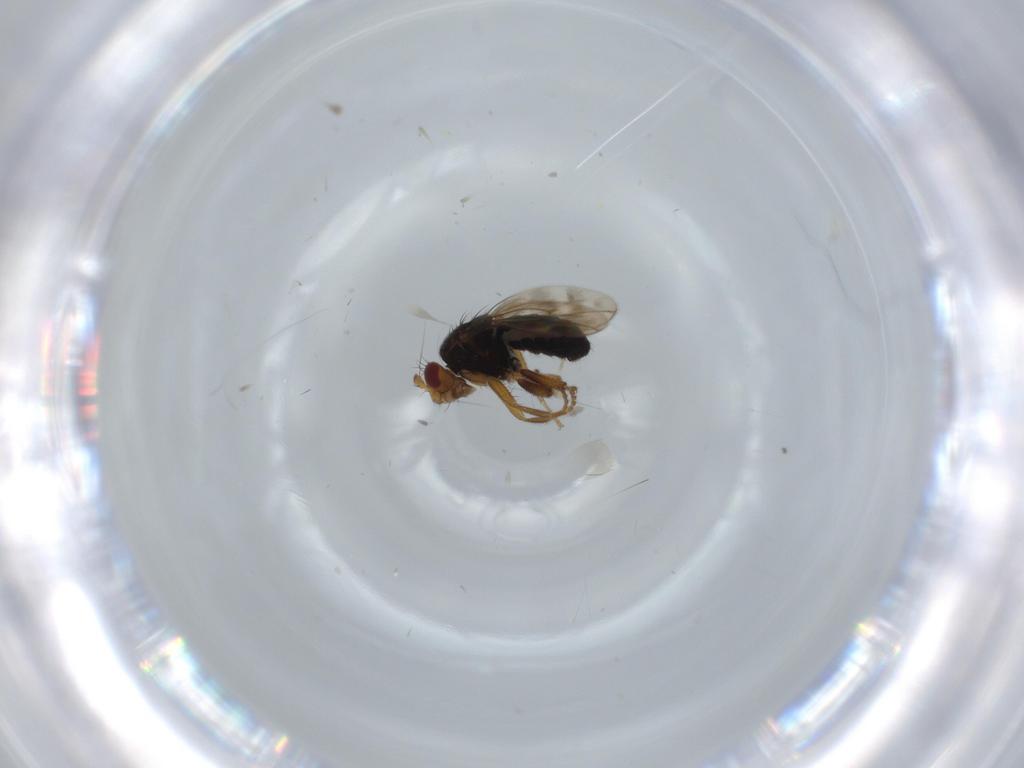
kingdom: Animalia
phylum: Arthropoda
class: Insecta
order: Diptera
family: Sphaeroceridae
